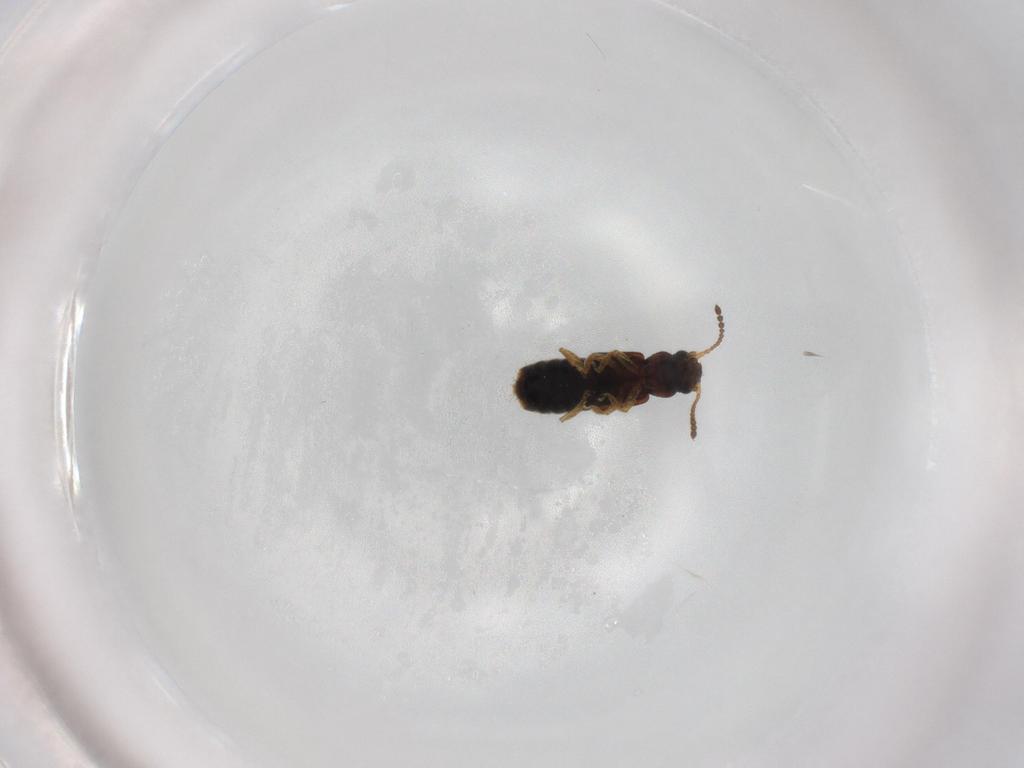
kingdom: Animalia
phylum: Arthropoda
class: Insecta
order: Coleoptera
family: Staphylinidae
